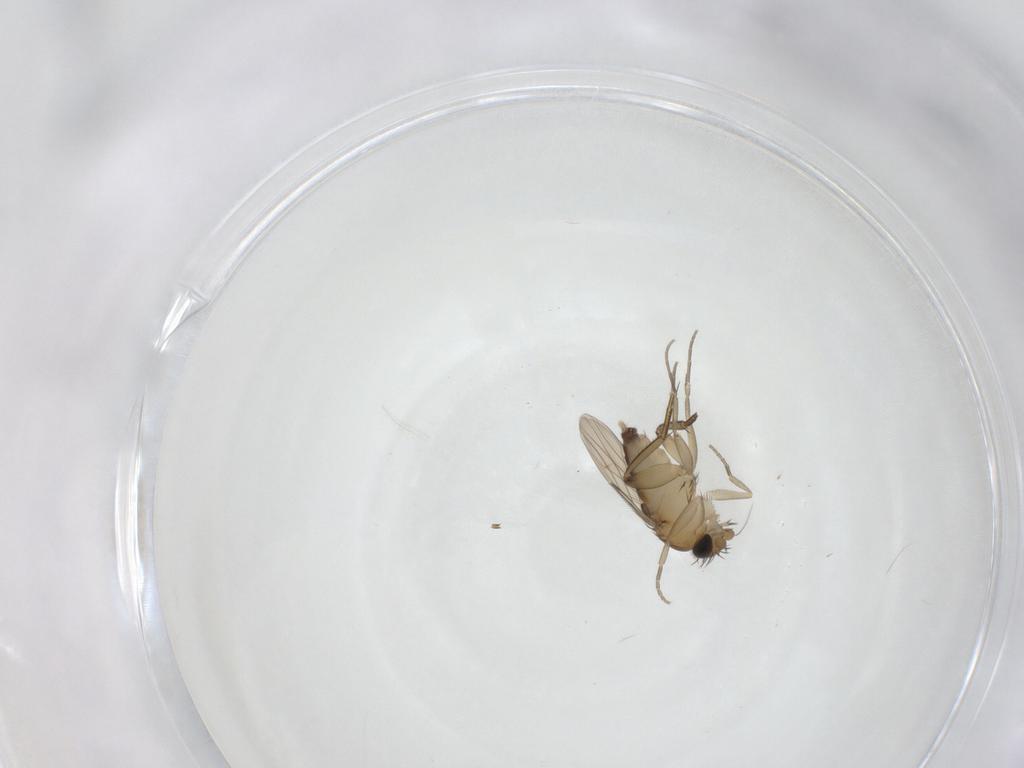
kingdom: Animalia
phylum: Arthropoda
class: Insecta
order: Diptera
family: Phoridae
